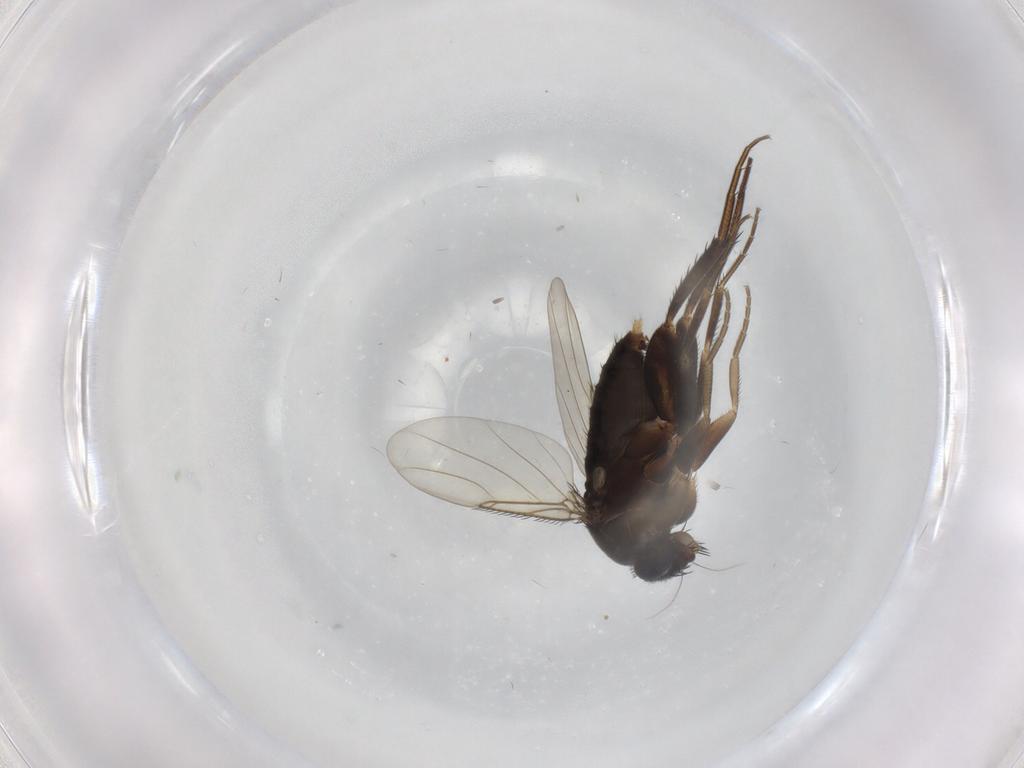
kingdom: Animalia
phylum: Arthropoda
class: Insecta
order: Diptera
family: Phoridae
